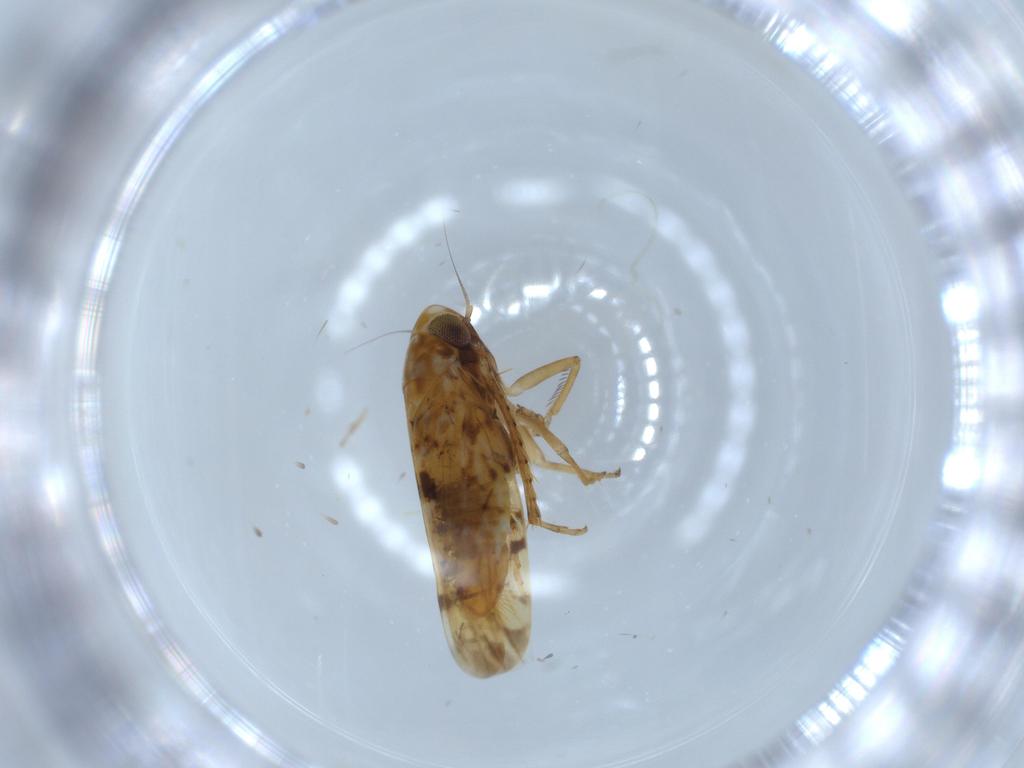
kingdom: Animalia
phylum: Arthropoda
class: Insecta
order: Hemiptera
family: Cicadellidae
